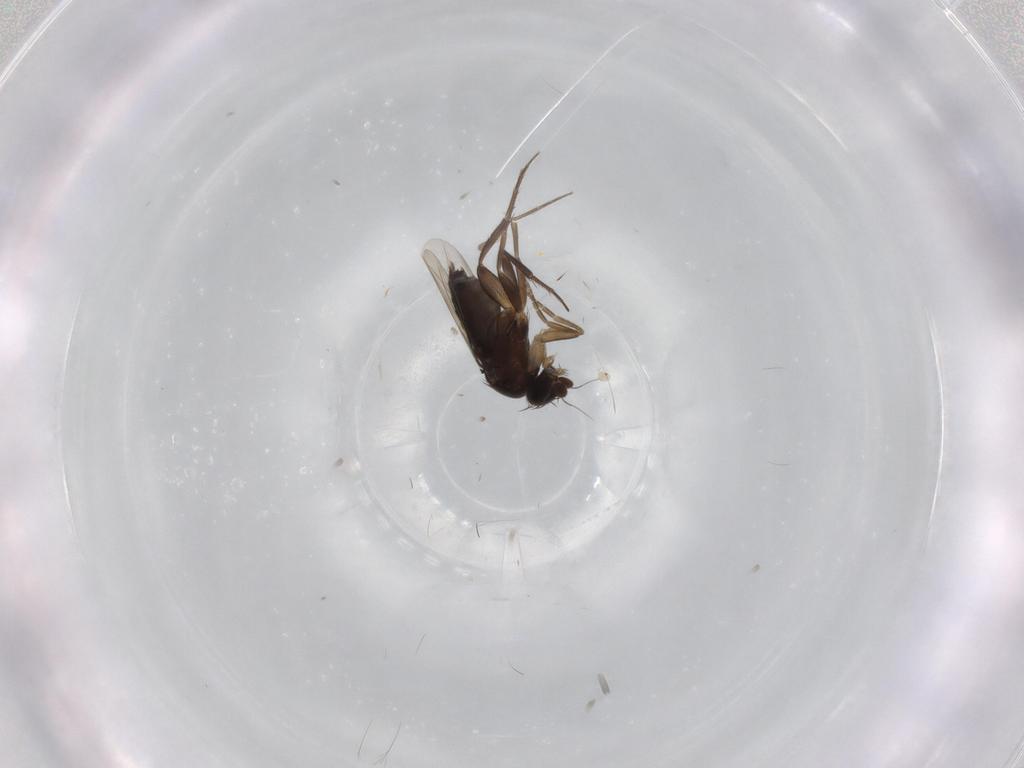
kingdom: Animalia
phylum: Arthropoda
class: Insecta
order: Diptera
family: Phoridae
